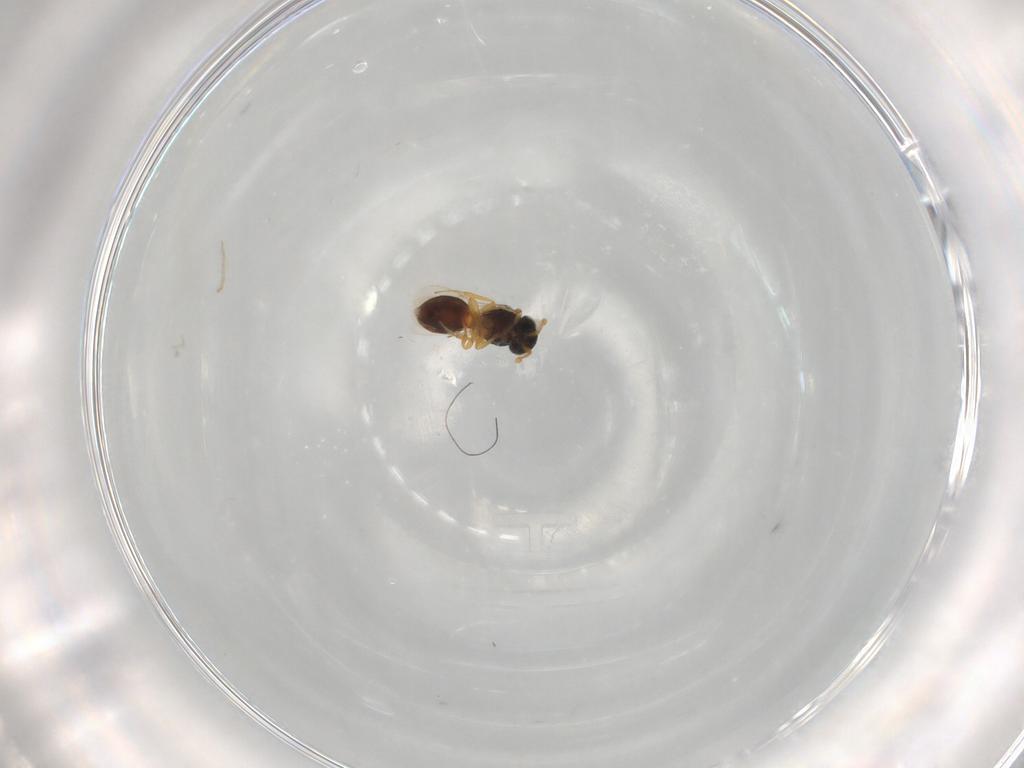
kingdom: Animalia
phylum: Arthropoda
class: Insecta
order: Hymenoptera
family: Scelionidae
